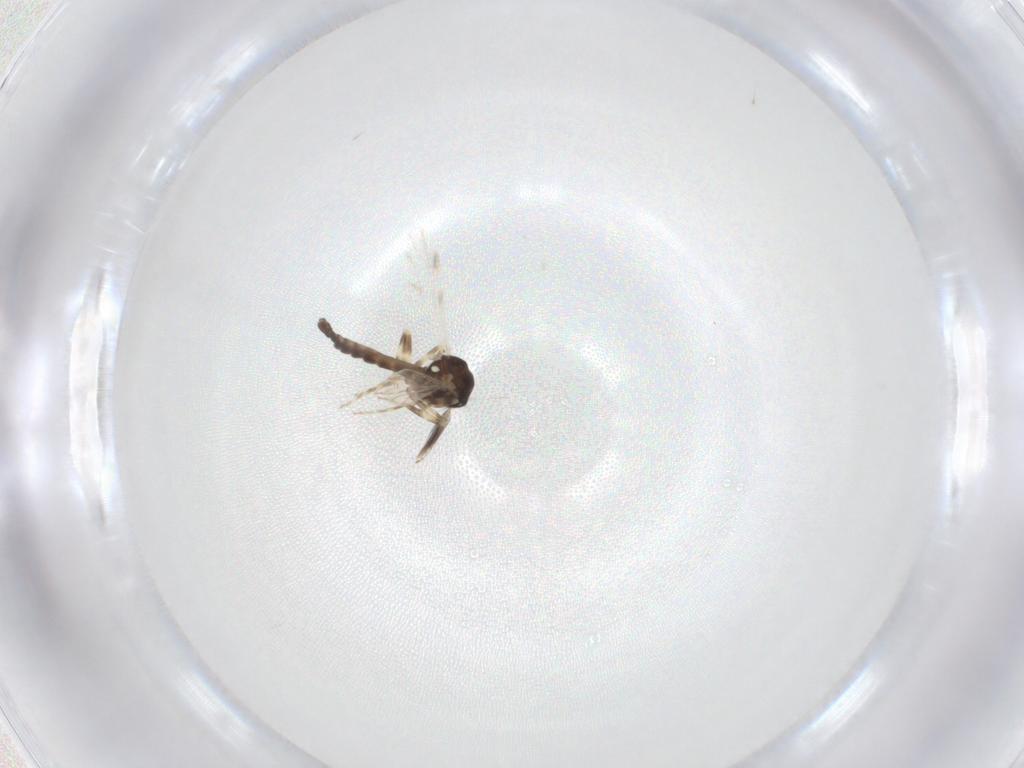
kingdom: Animalia
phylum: Arthropoda
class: Insecta
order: Diptera
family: Cecidomyiidae
